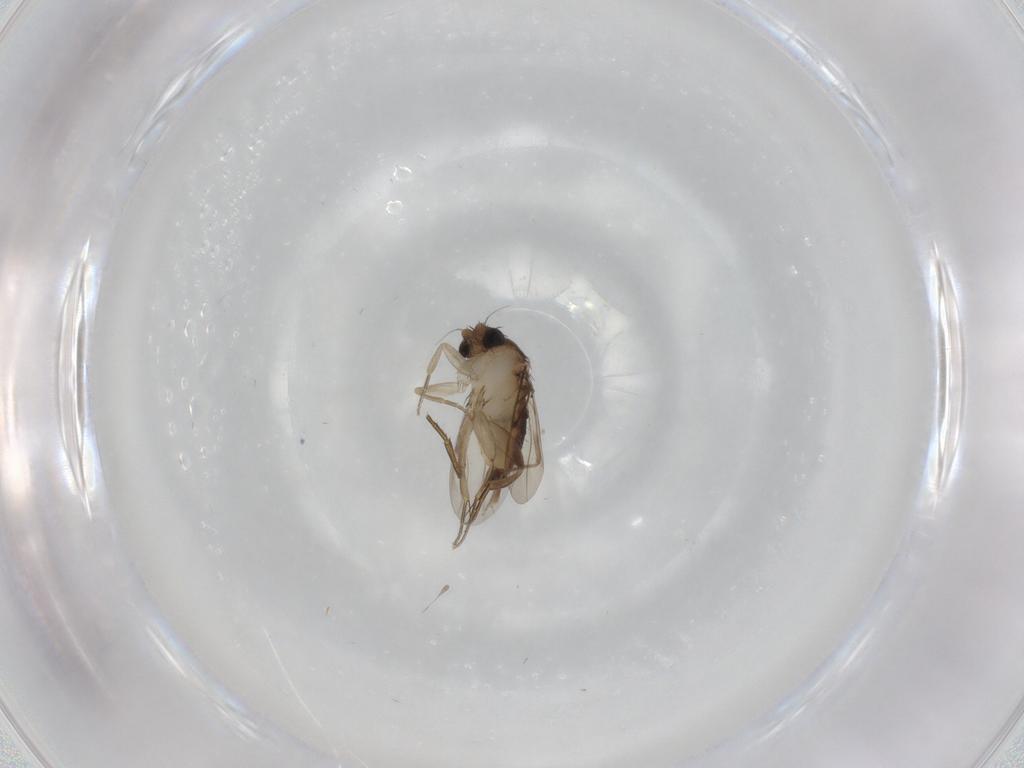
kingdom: Animalia
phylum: Arthropoda
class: Insecta
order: Diptera
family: Phoridae
